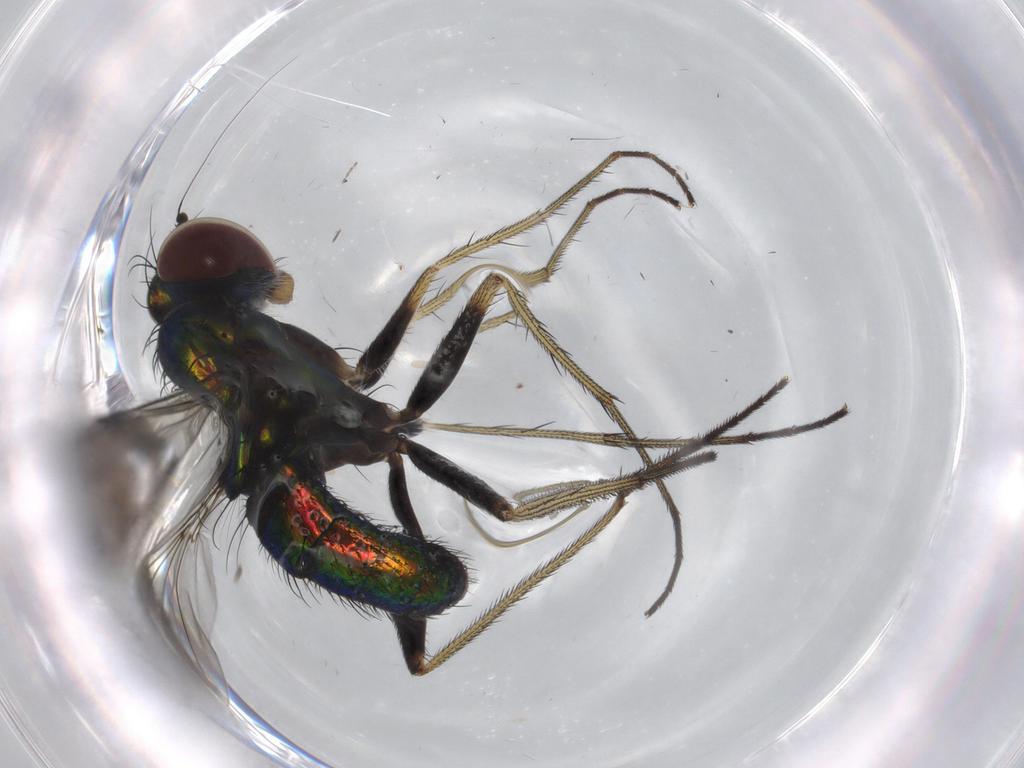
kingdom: Animalia
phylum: Arthropoda
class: Insecta
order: Diptera
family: Dolichopodidae
